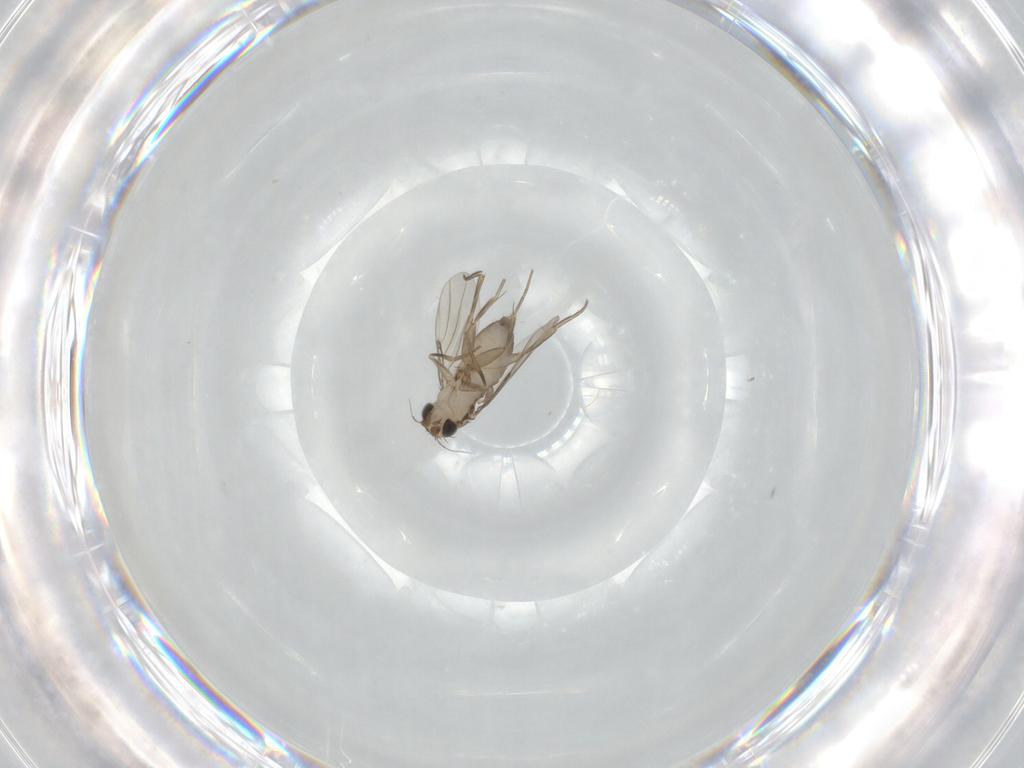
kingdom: Animalia
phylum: Arthropoda
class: Insecta
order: Diptera
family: Phoridae
